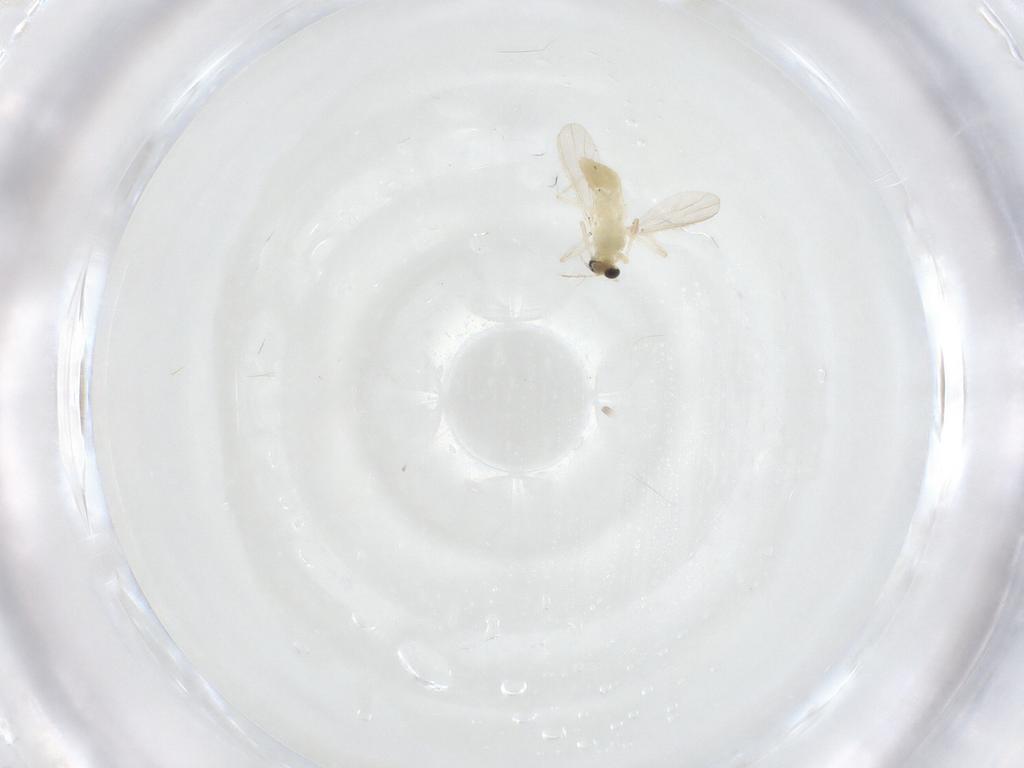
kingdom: Animalia
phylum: Arthropoda
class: Insecta
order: Diptera
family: Chironomidae
